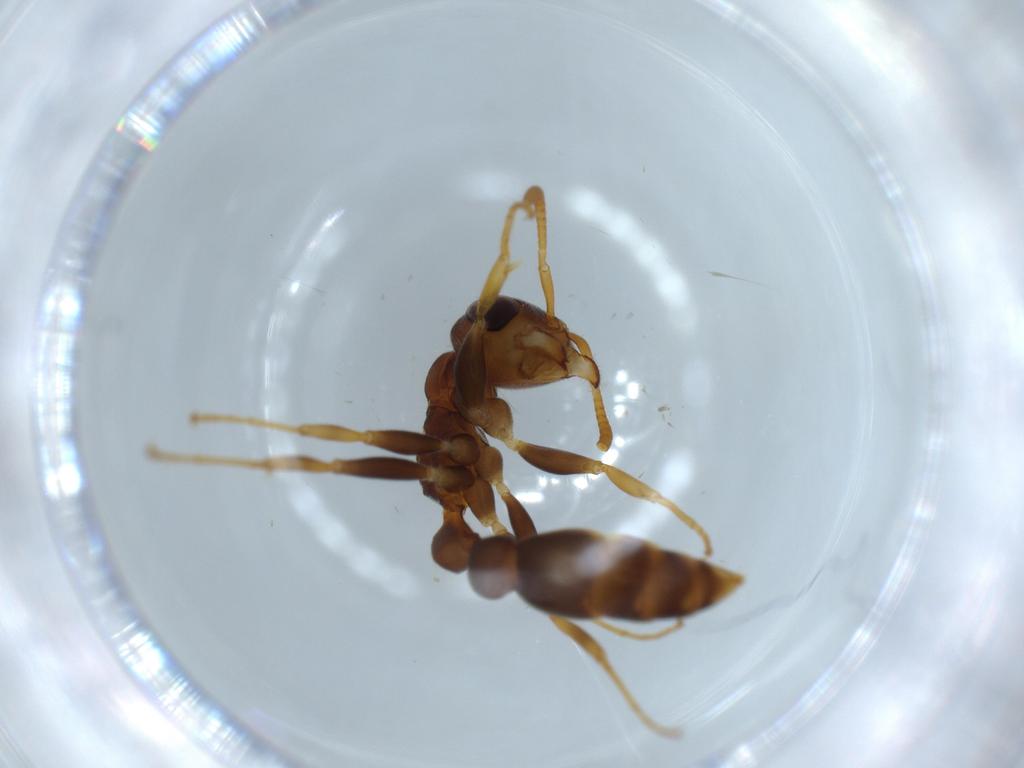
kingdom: Animalia
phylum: Arthropoda
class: Insecta
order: Hymenoptera
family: Formicidae
